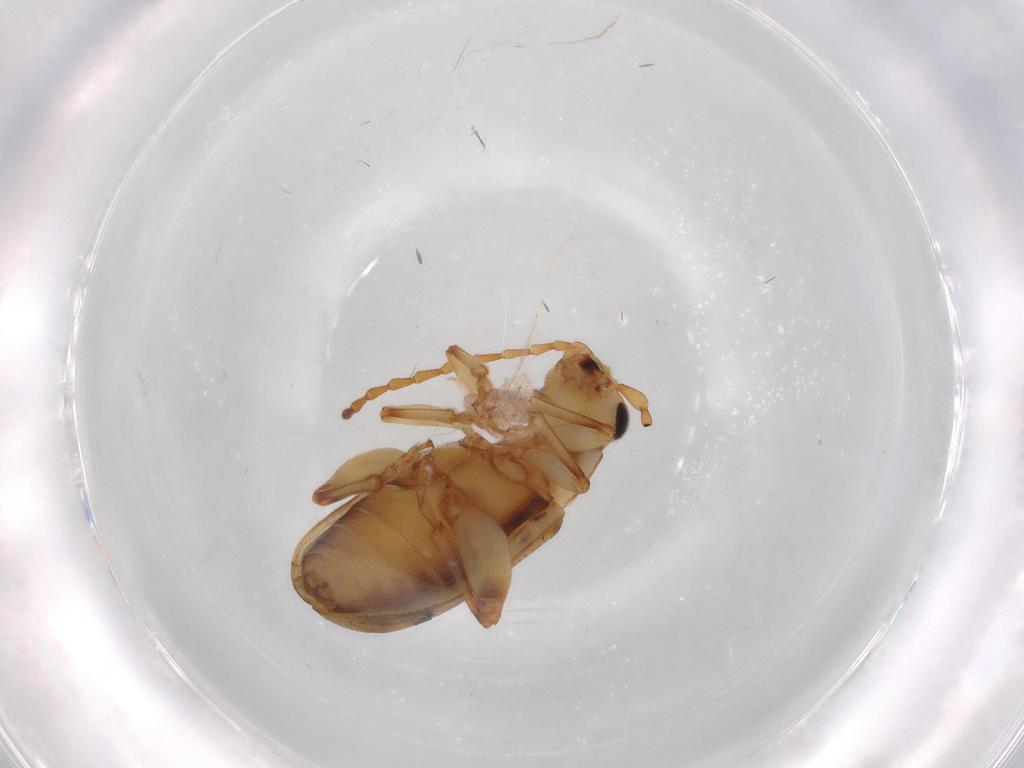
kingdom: Animalia
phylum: Arthropoda
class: Insecta
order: Coleoptera
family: Chrysomelidae
